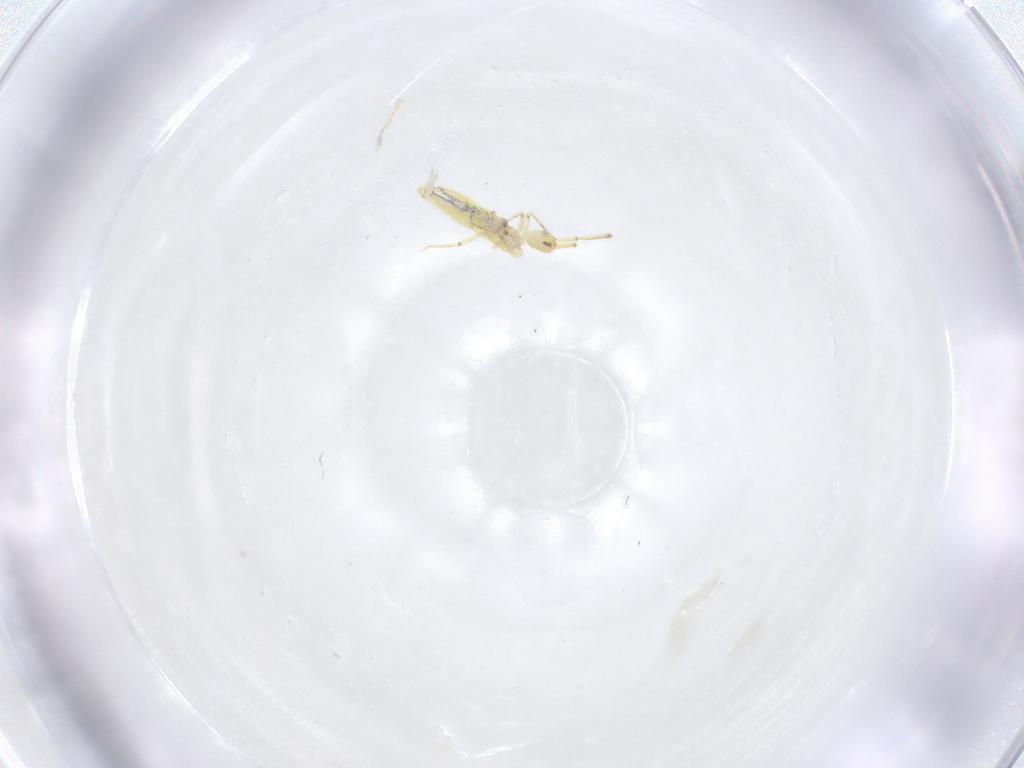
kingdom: Animalia
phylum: Arthropoda
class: Collembola
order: Entomobryomorpha
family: Entomobryidae
